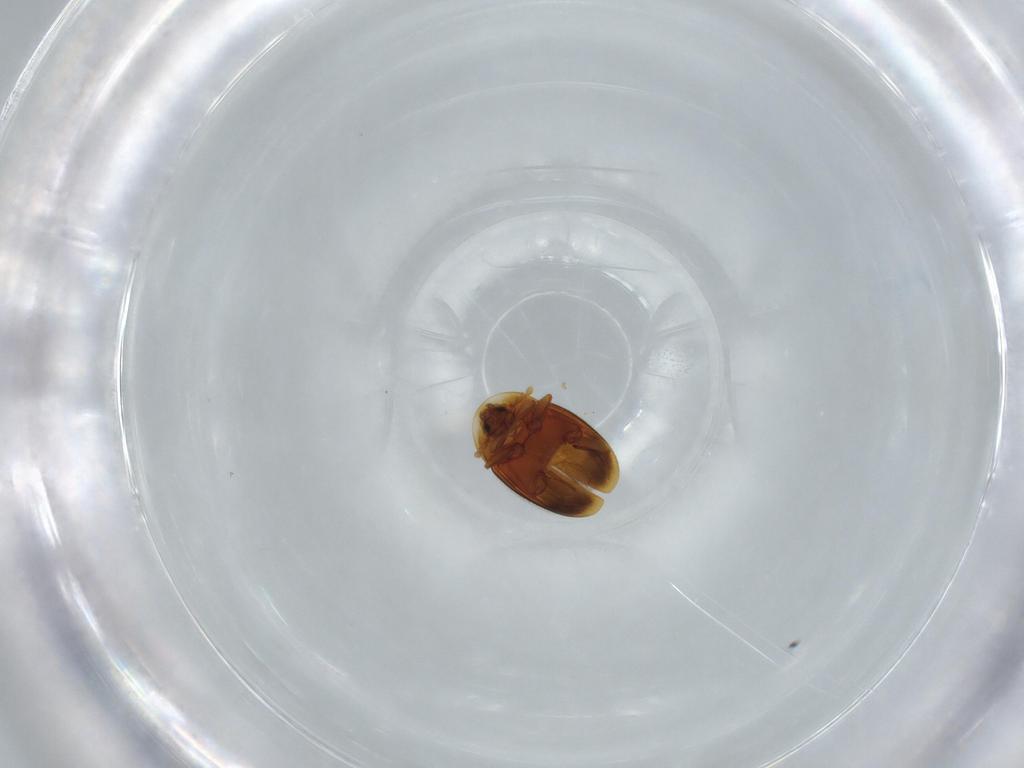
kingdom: Animalia
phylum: Arthropoda
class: Insecta
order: Coleoptera
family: Corylophidae
